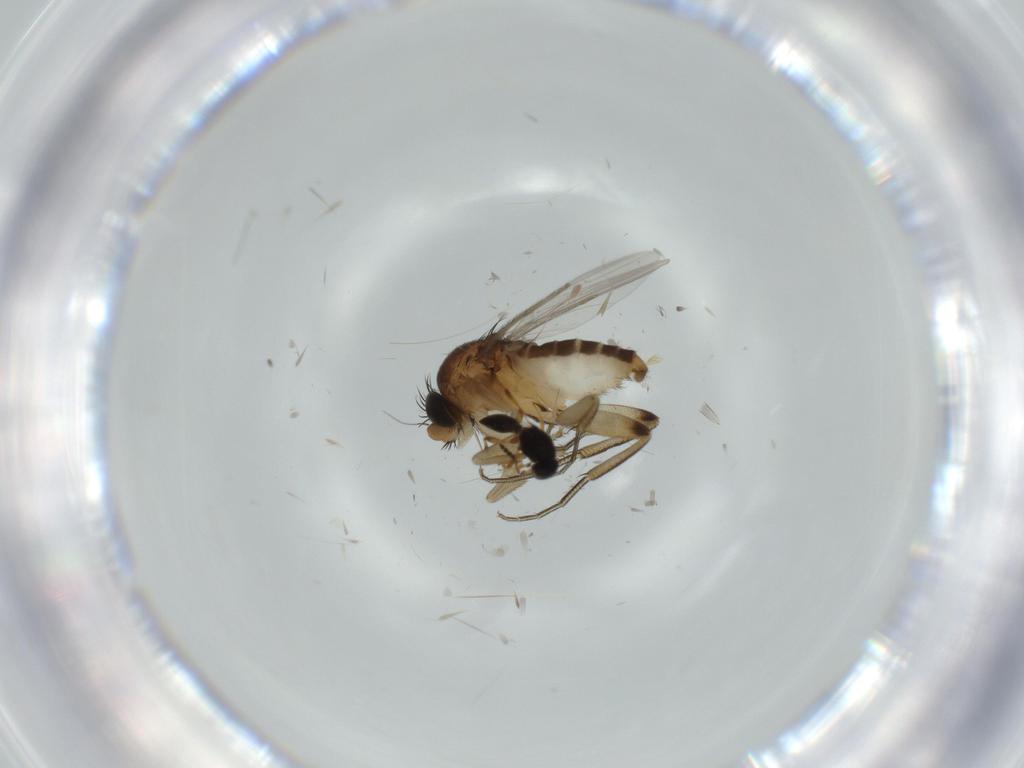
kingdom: Animalia
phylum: Arthropoda
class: Insecta
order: Diptera
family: Phoridae
